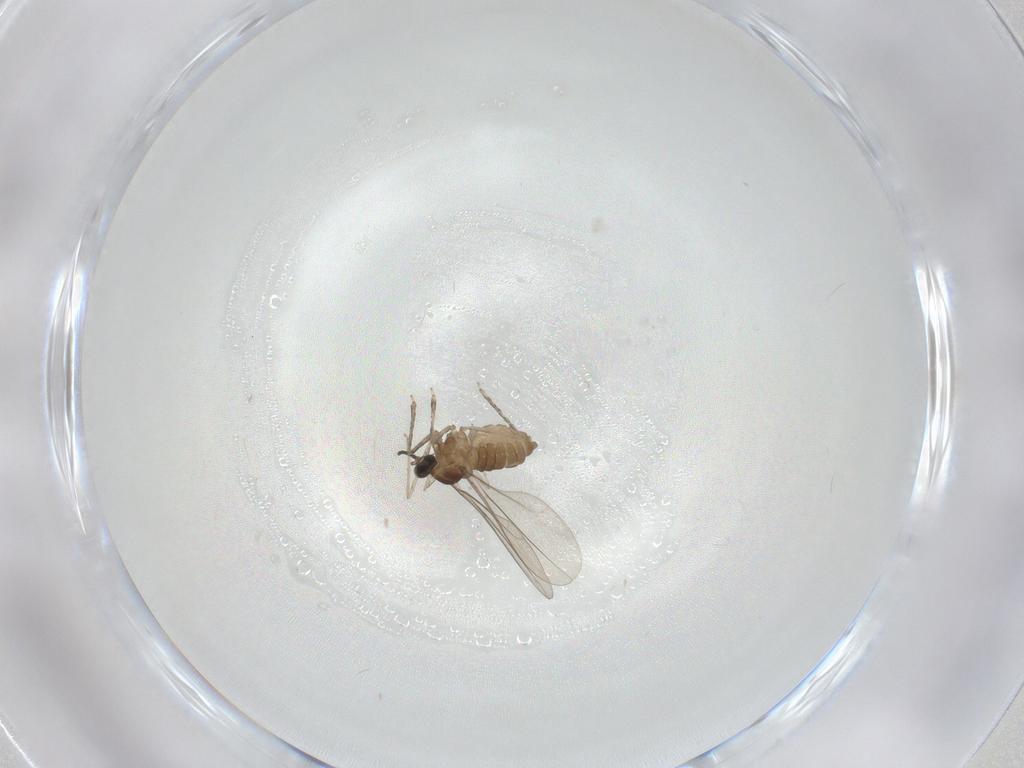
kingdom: Animalia
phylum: Arthropoda
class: Insecta
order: Diptera
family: Cecidomyiidae
